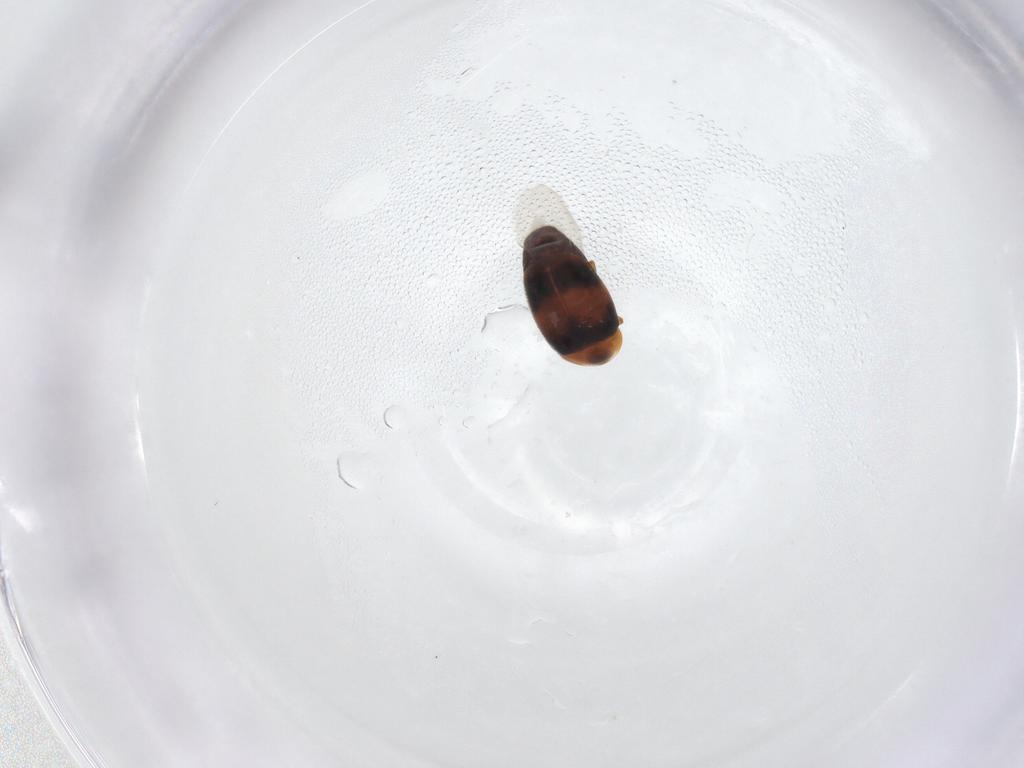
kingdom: Animalia
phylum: Arthropoda
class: Insecta
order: Coleoptera
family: Corylophidae
